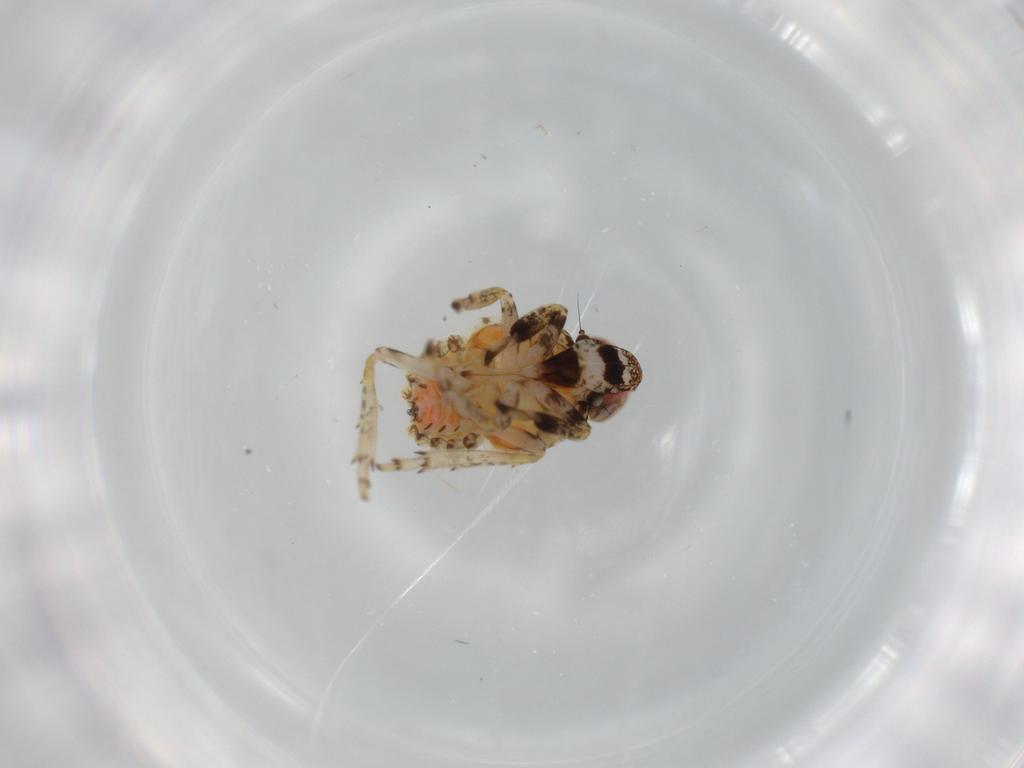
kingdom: Animalia
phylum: Arthropoda
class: Insecta
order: Hemiptera
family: Issidae
